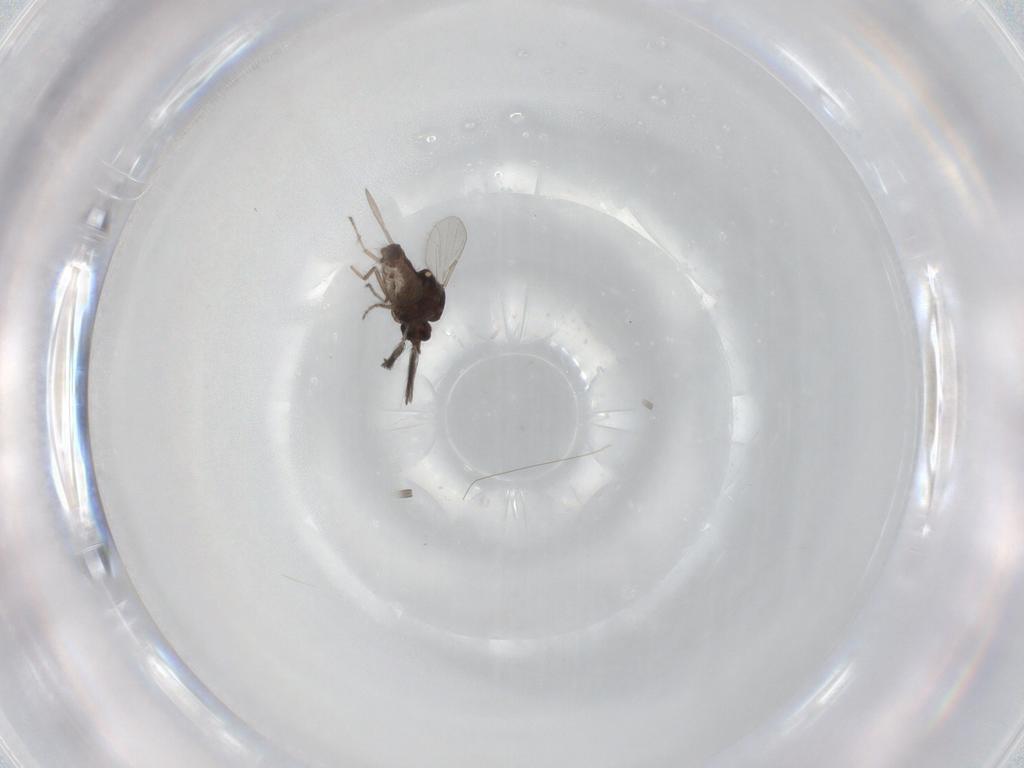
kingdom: Animalia
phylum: Arthropoda
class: Insecta
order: Diptera
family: Ceratopogonidae
